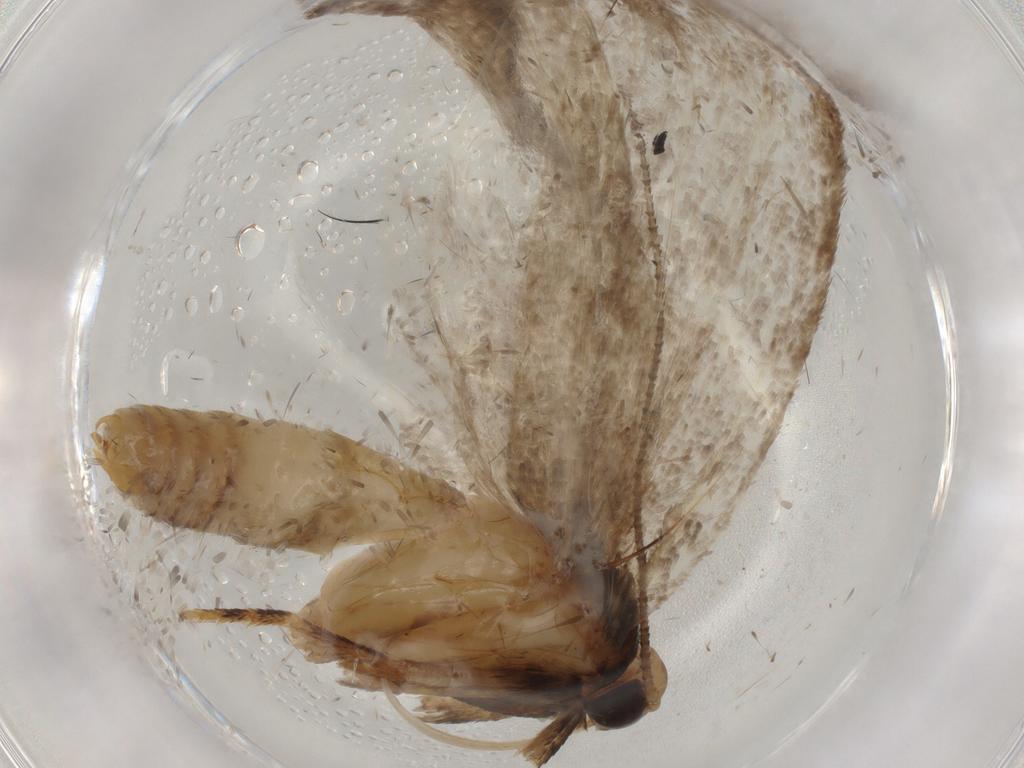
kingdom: Animalia
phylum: Arthropoda
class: Insecta
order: Lepidoptera
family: Oecophoridae
